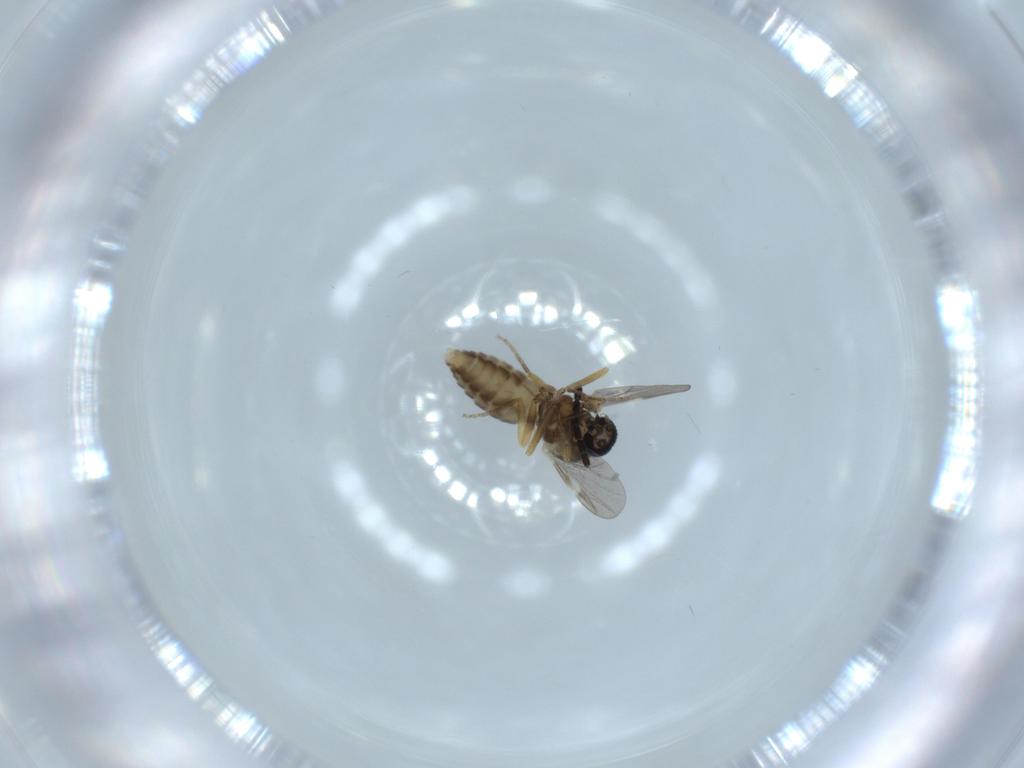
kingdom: Animalia
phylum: Arthropoda
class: Insecta
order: Diptera
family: Ceratopogonidae
